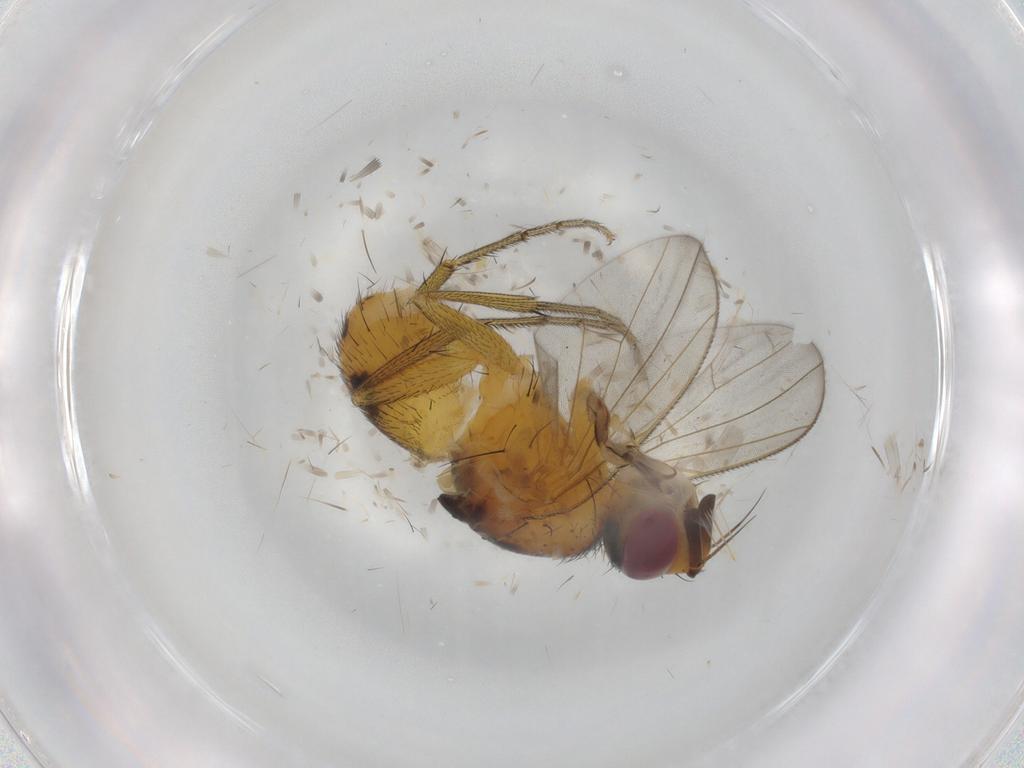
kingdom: Animalia
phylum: Arthropoda
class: Insecta
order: Diptera
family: Muscidae
